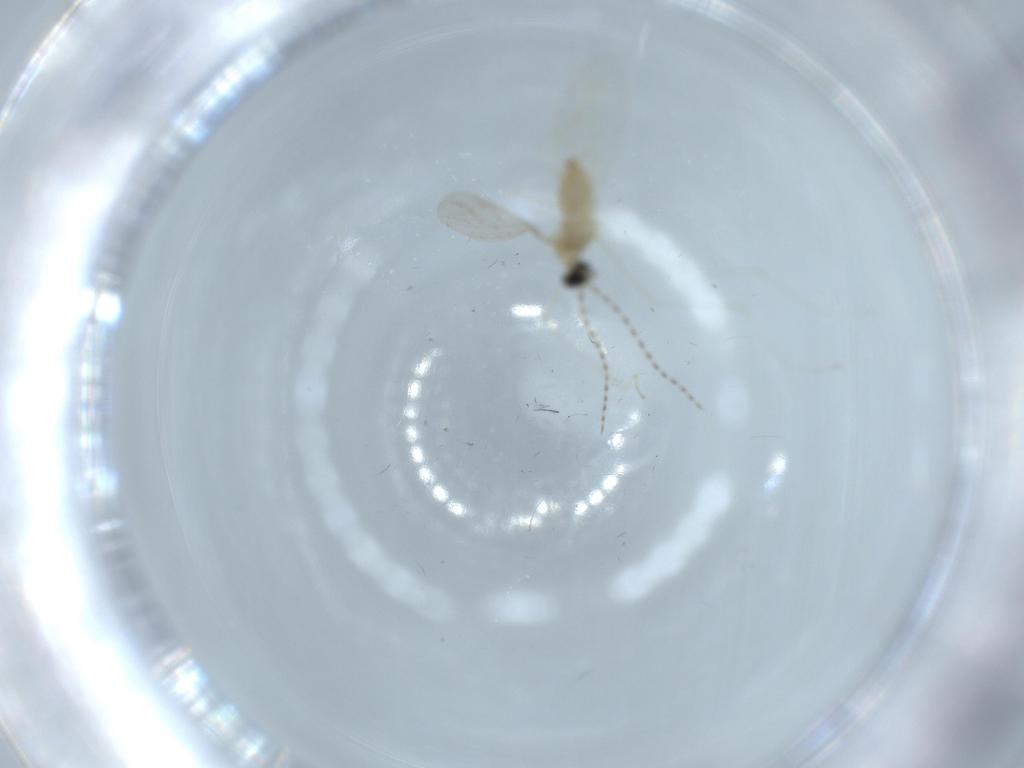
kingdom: Animalia
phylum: Arthropoda
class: Insecta
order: Diptera
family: Cecidomyiidae
